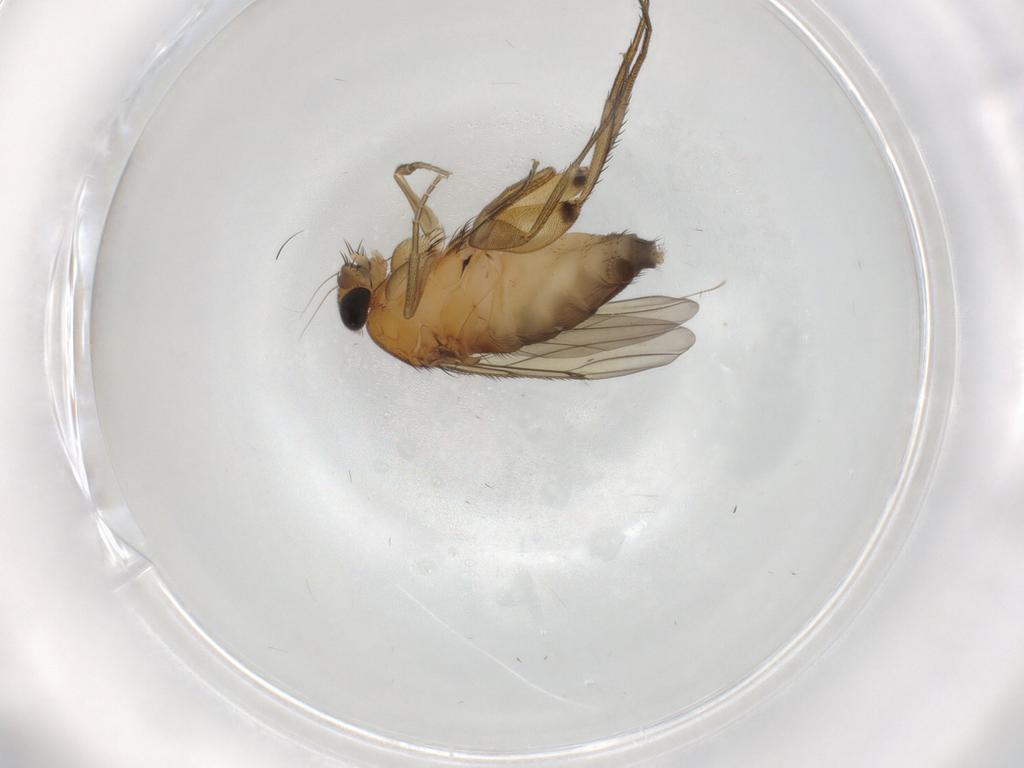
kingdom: Animalia
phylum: Arthropoda
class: Insecta
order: Diptera
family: Phoridae
